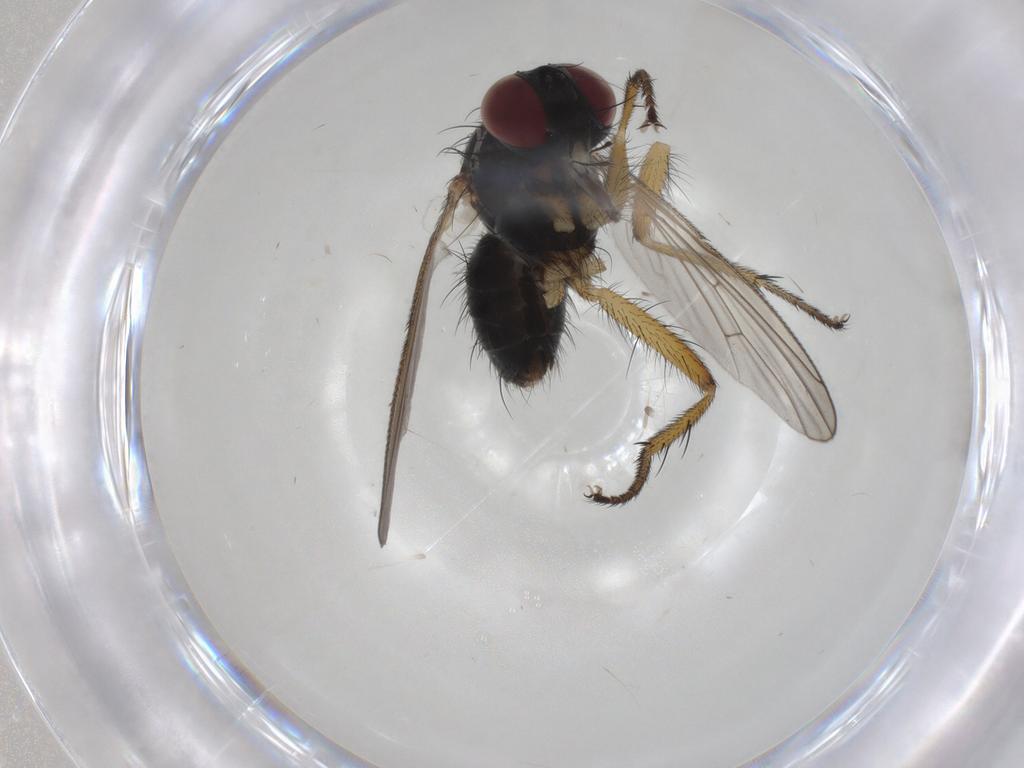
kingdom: Animalia
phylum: Arthropoda
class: Insecta
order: Diptera
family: Muscidae
